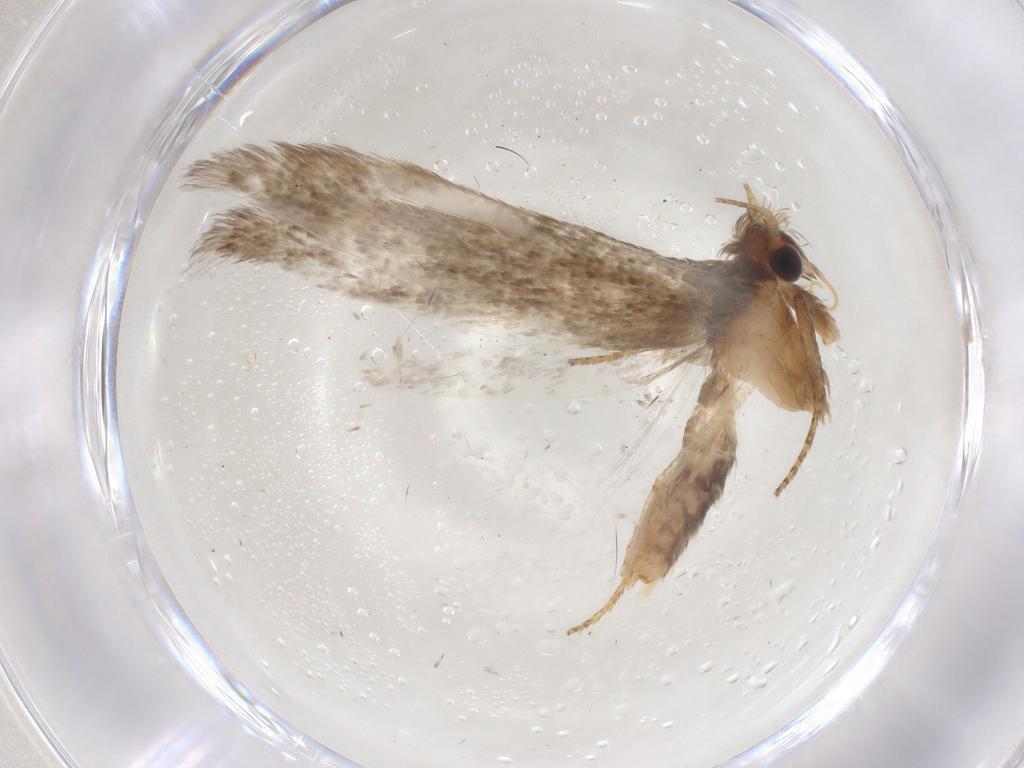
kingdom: Animalia
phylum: Arthropoda
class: Insecta
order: Lepidoptera
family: Coleophoridae
